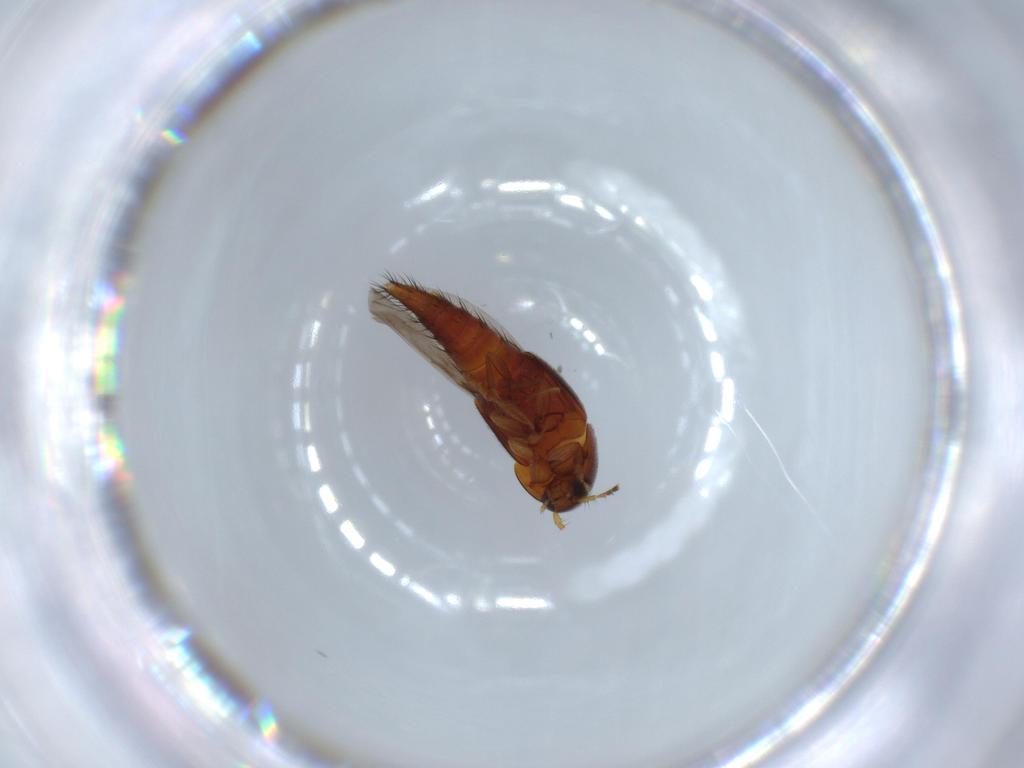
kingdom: Animalia
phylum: Arthropoda
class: Insecta
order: Coleoptera
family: Staphylinidae
